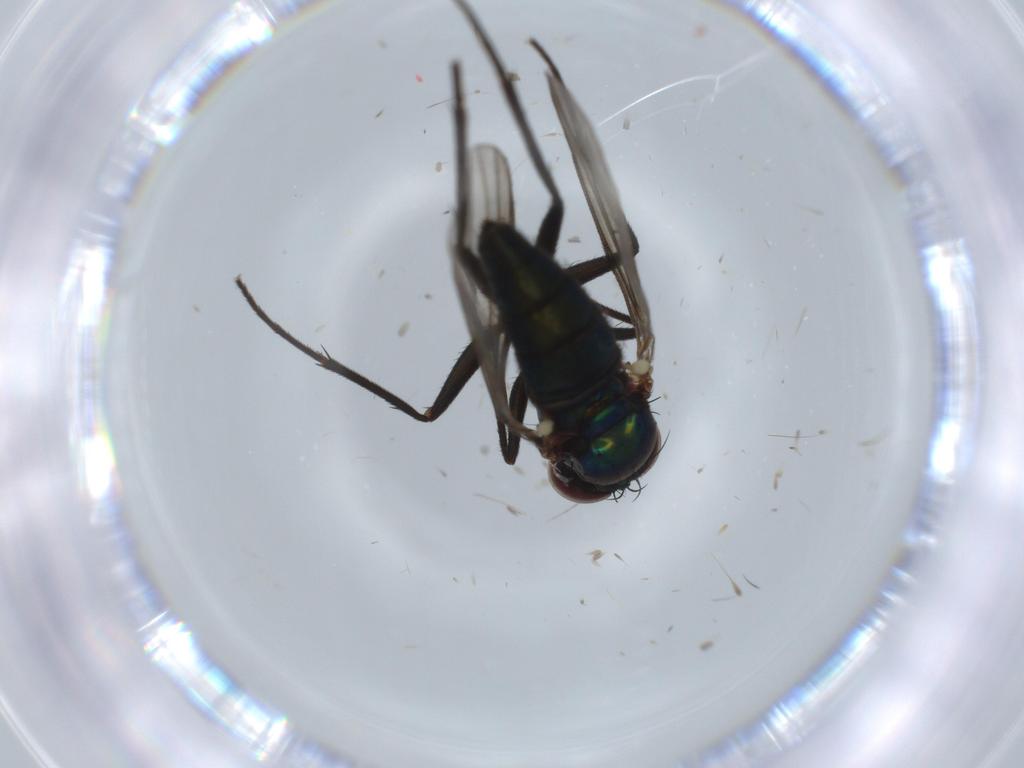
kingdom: Animalia
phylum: Arthropoda
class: Insecta
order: Diptera
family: Dolichopodidae
